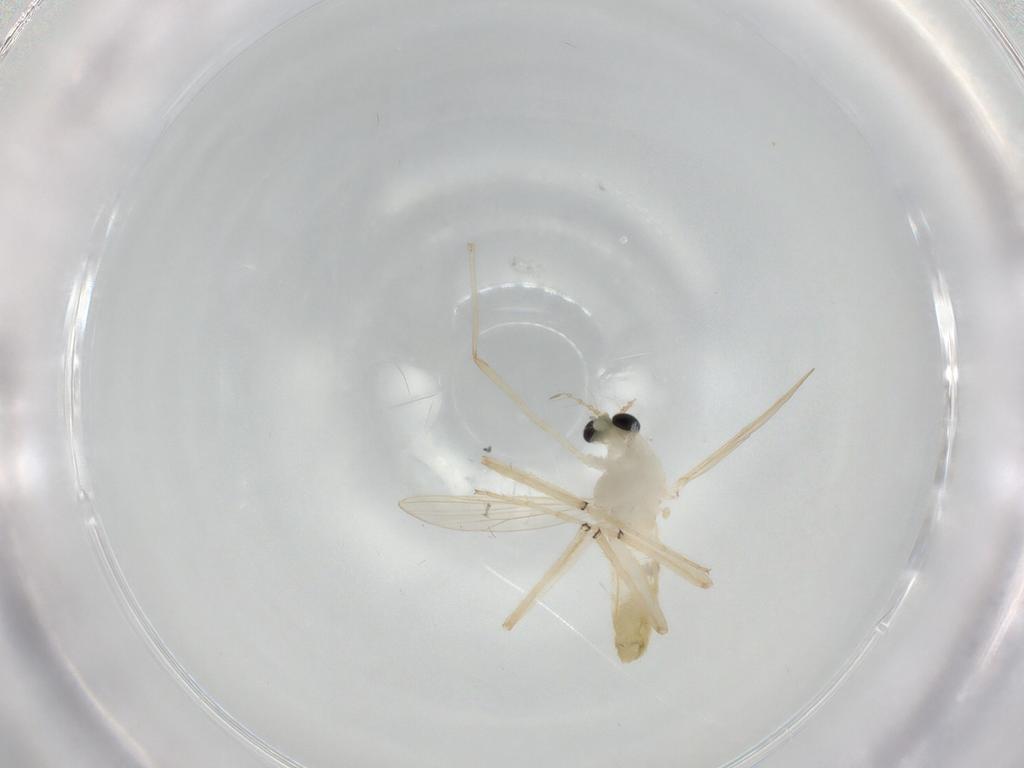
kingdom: Animalia
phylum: Arthropoda
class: Insecta
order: Diptera
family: Chironomidae
